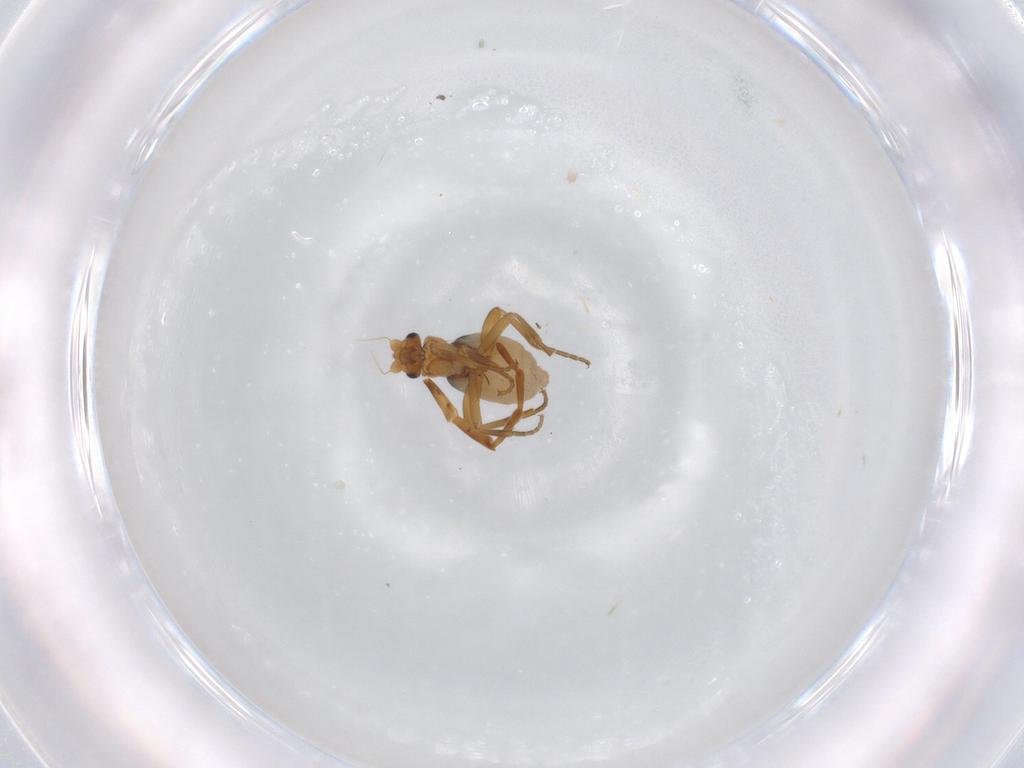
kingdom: Animalia
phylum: Arthropoda
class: Insecta
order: Diptera
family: Phoridae
